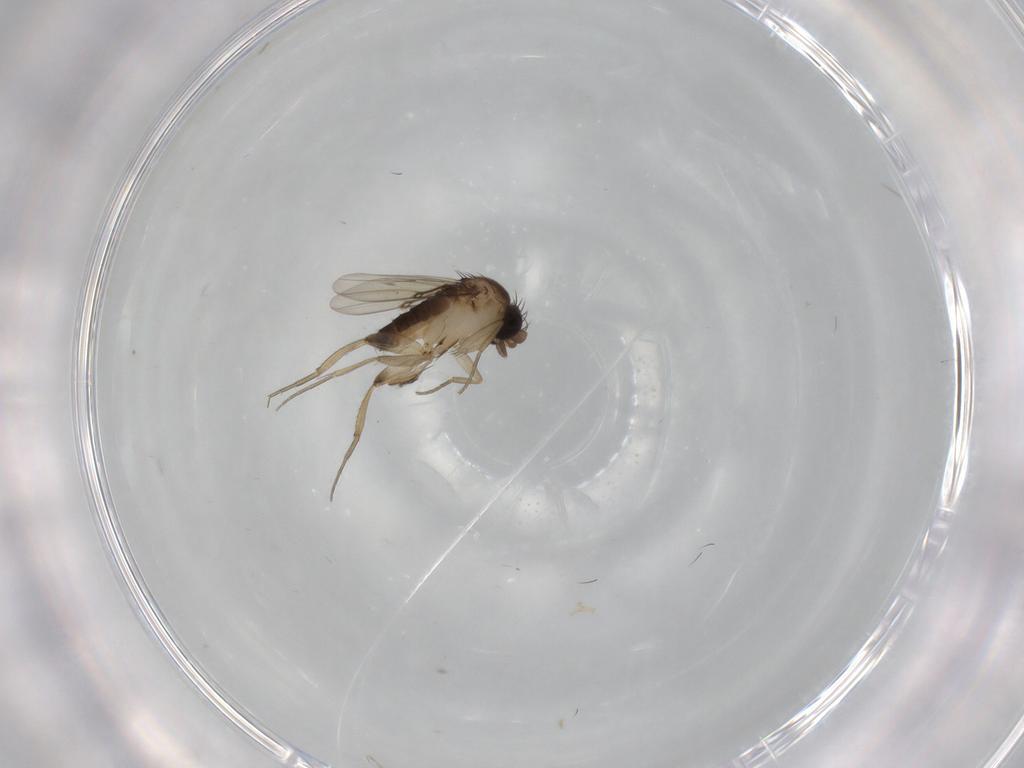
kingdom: Animalia
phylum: Arthropoda
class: Insecta
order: Diptera
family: Phoridae
